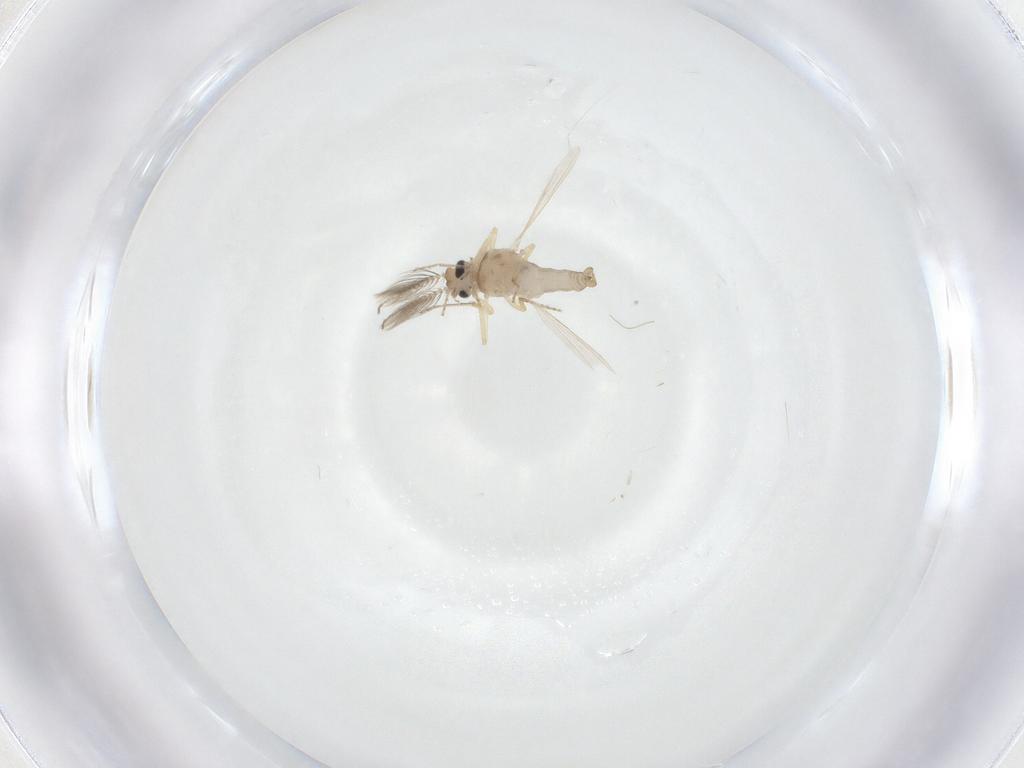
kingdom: Animalia
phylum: Arthropoda
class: Insecta
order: Diptera
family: Ceratopogonidae
